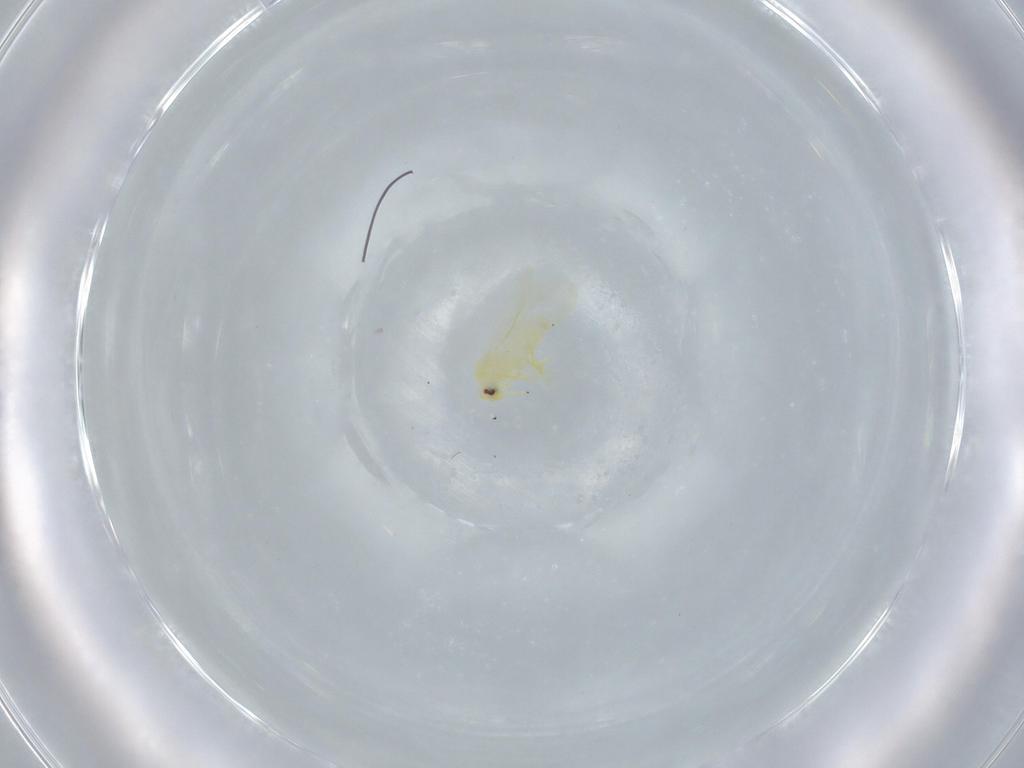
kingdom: Animalia
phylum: Arthropoda
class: Insecta
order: Hemiptera
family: Aleyrodidae
